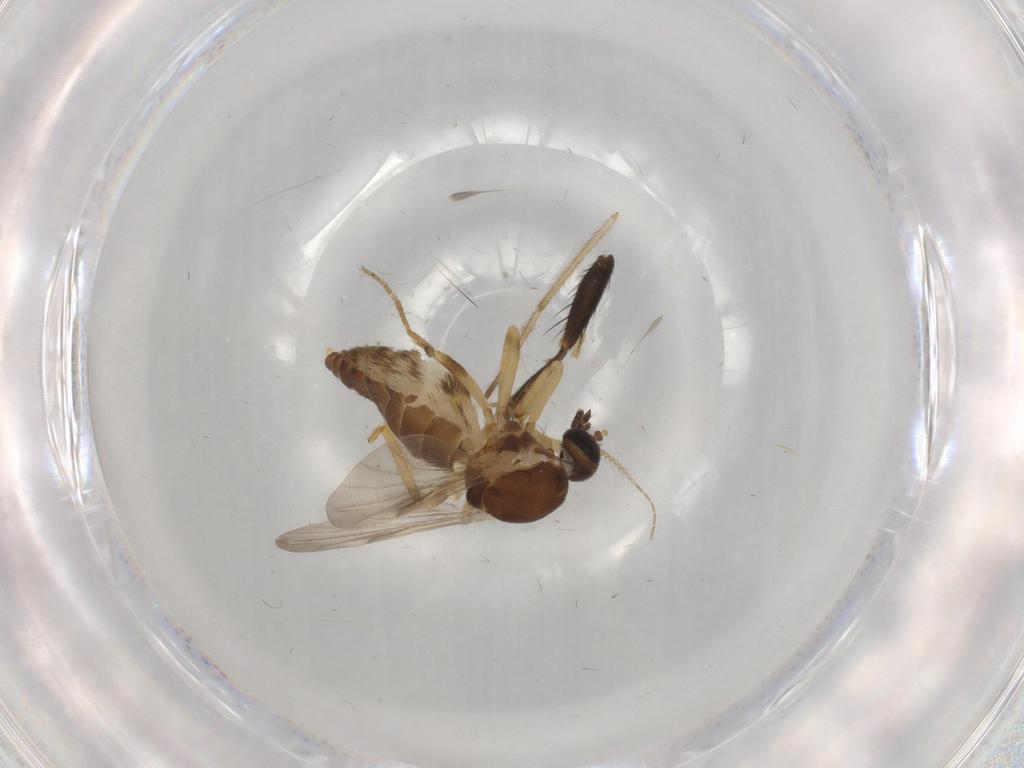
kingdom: Animalia
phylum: Arthropoda
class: Insecta
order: Diptera
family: Ceratopogonidae
